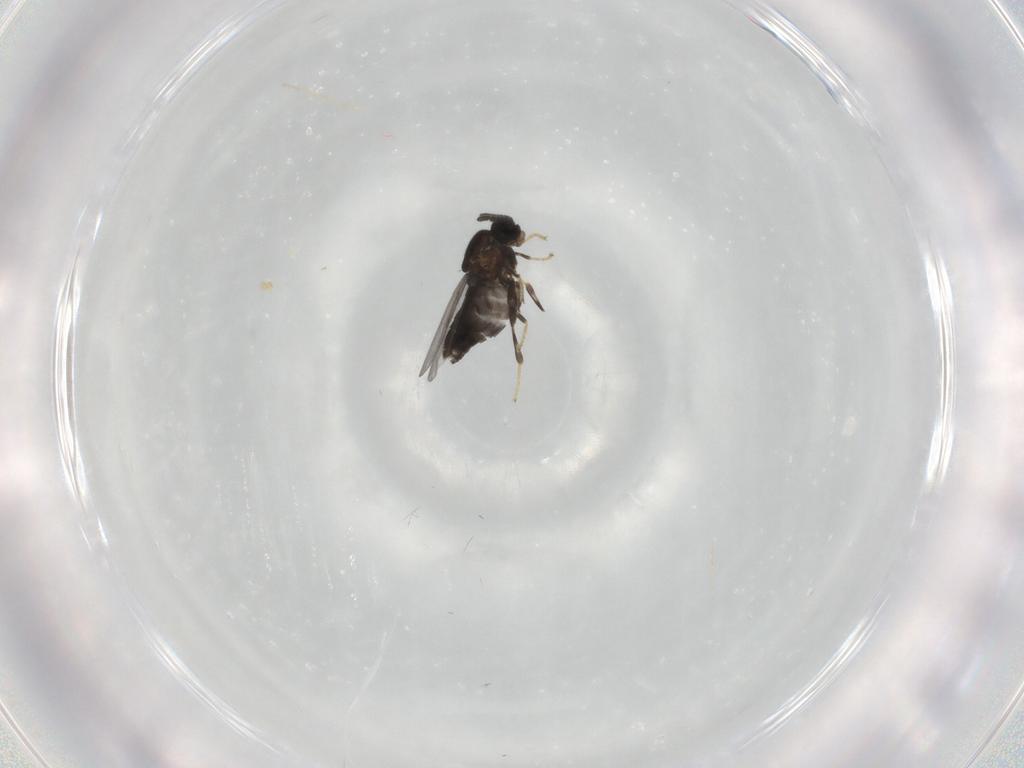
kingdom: Animalia
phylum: Arthropoda
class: Insecta
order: Diptera
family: Scatopsidae
